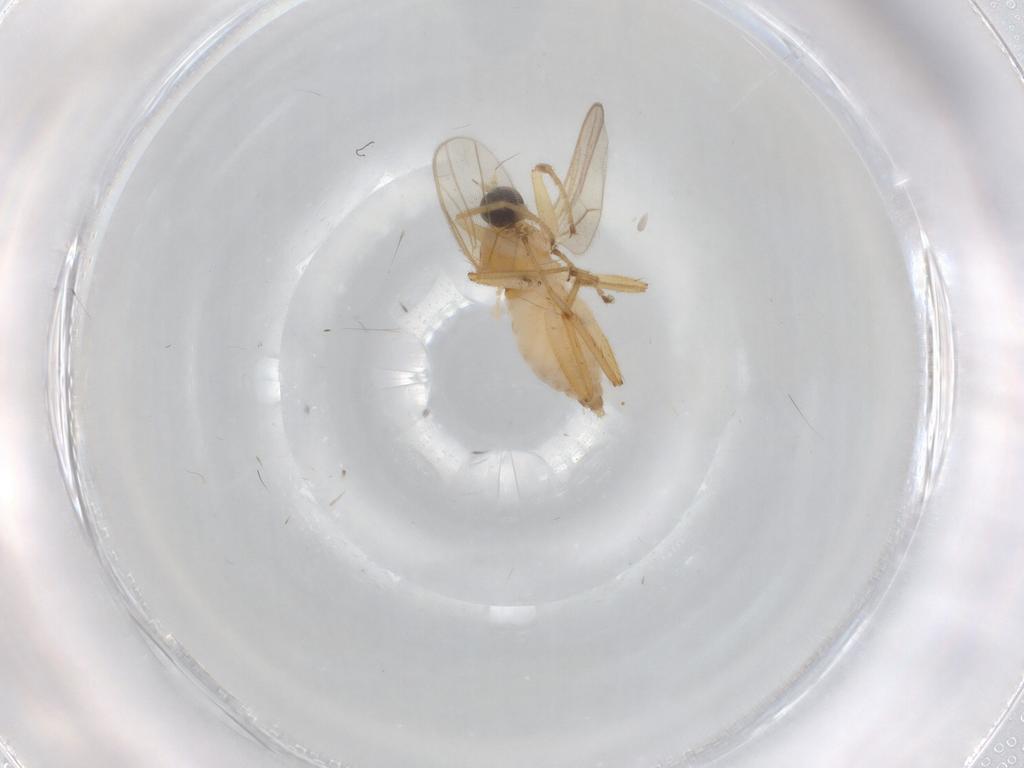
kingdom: Animalia
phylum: Arthropoda
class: Insecta
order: Diptera
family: Hybotidae
